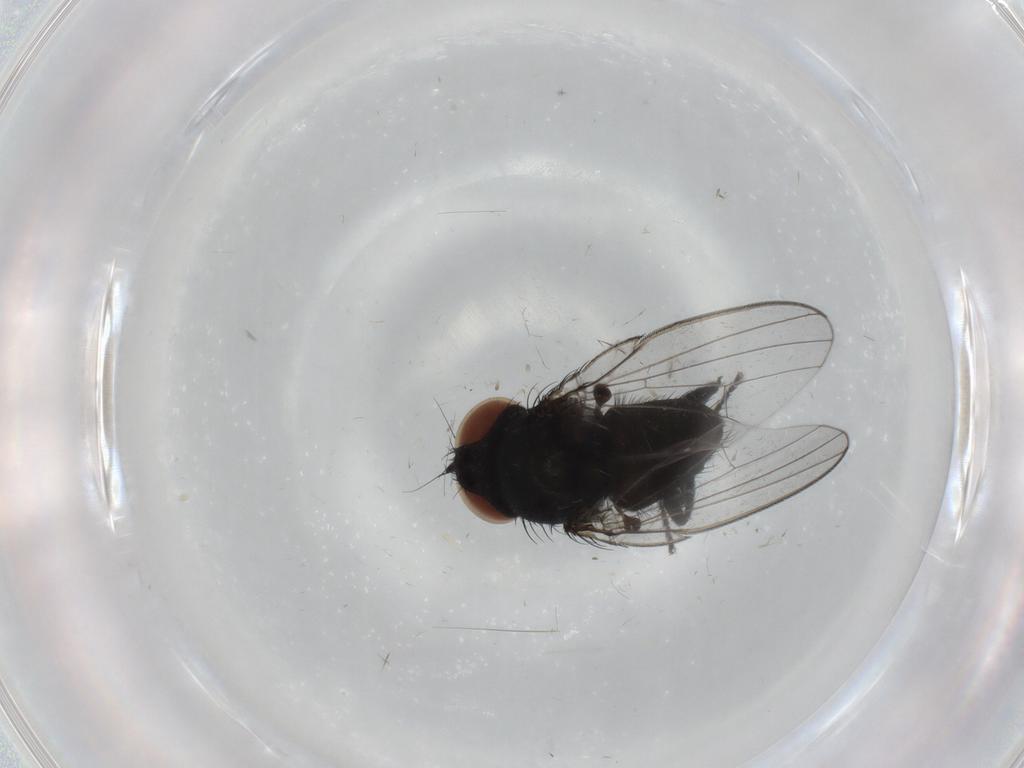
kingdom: Animalia
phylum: Arthropoda
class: Insecta
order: Diptera
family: Milichiidae
